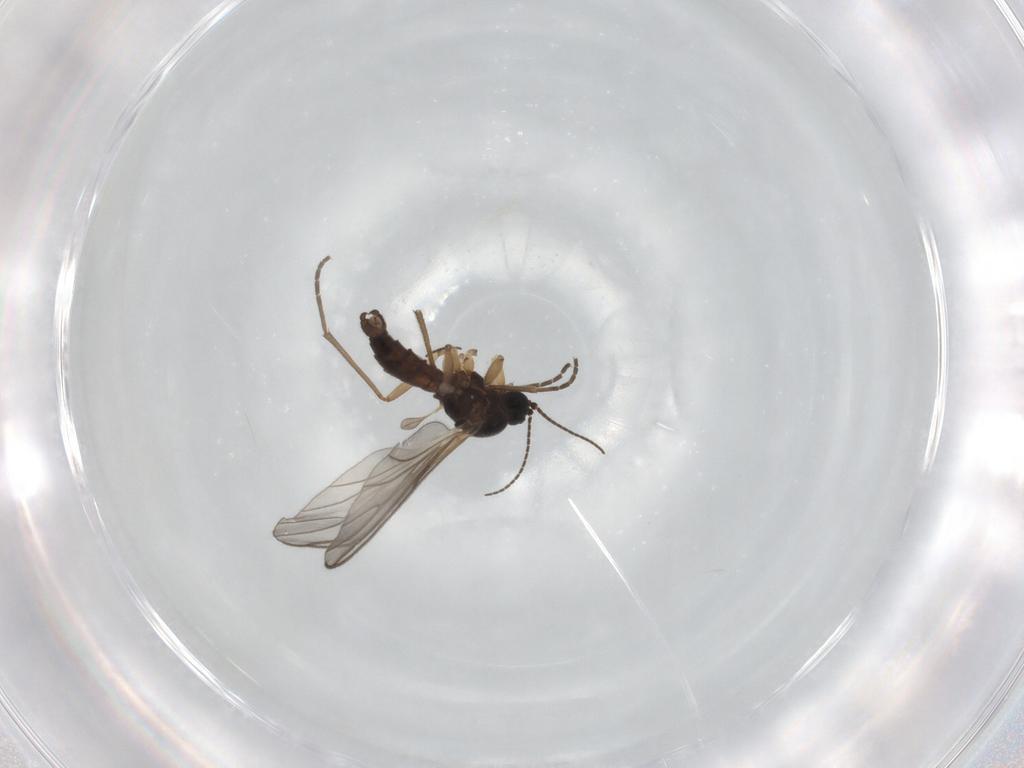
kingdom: Animalia
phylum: Arthropoda
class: Insecta
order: Diptera
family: Sciaridae
